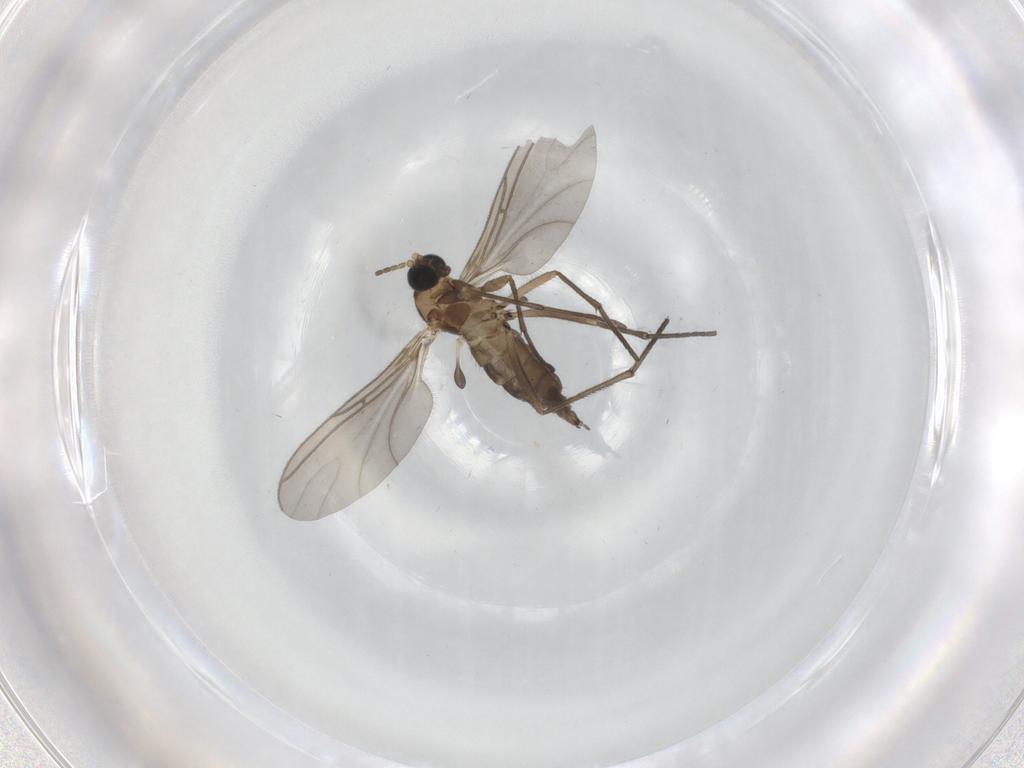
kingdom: Animalia
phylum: Arthropoda
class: Insecta
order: Diptera
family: Sciaridae
